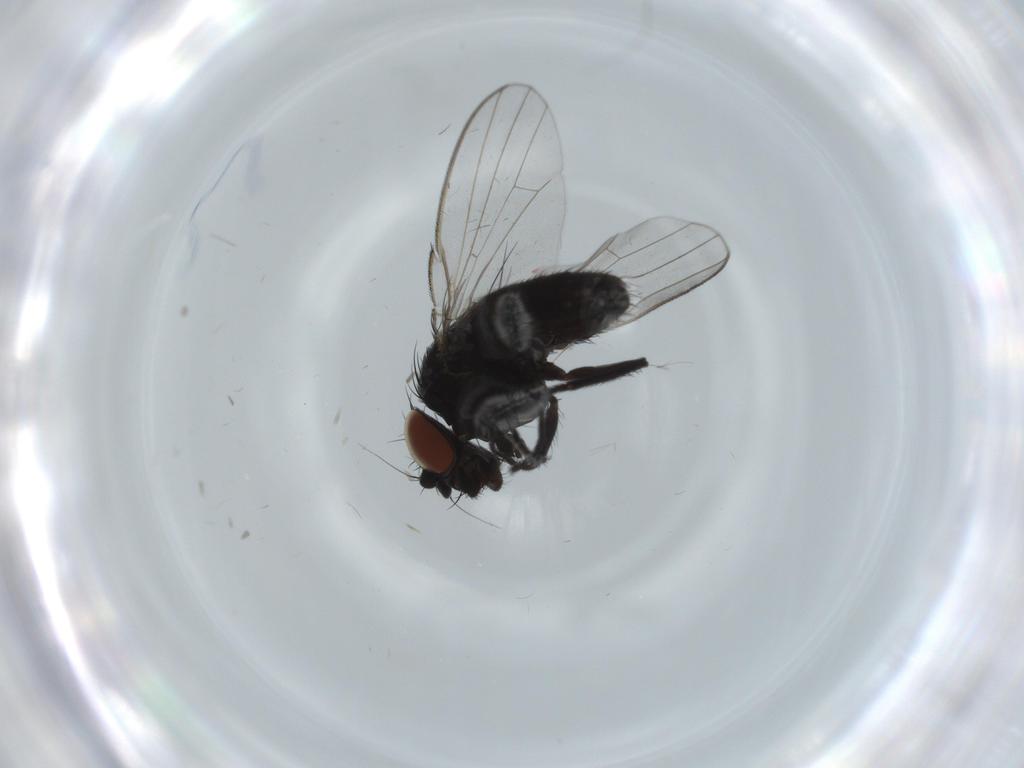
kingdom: Animalia
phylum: Arthropoda
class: Insecta
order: Diptera
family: Milichiidae
